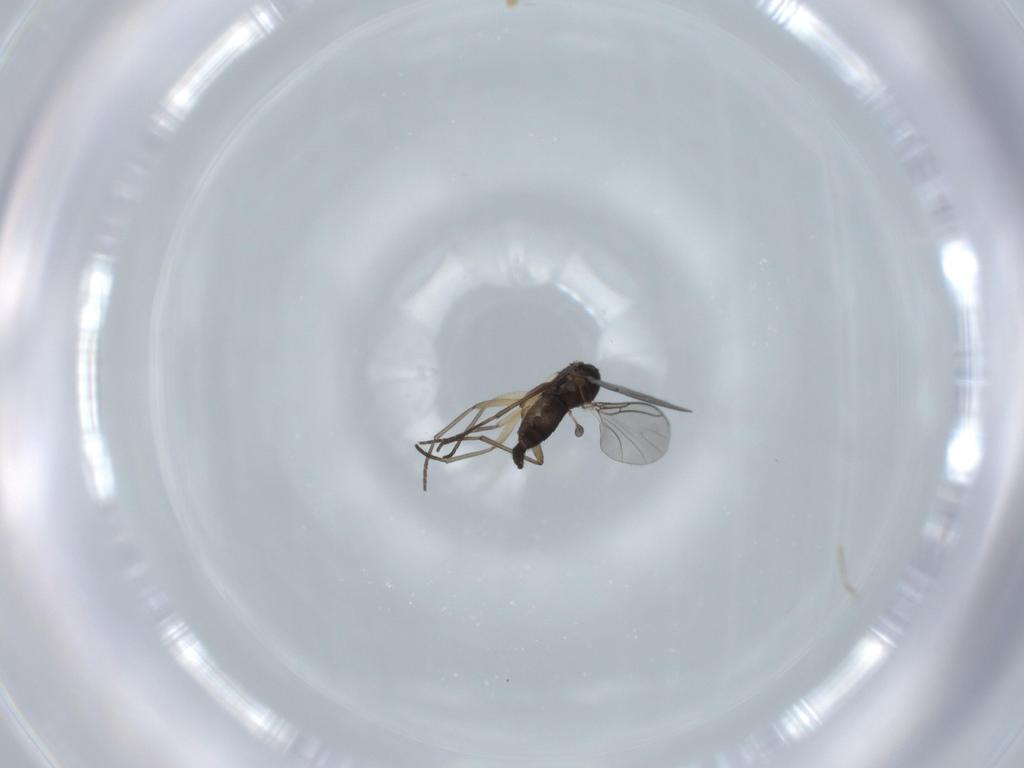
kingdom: Animalia
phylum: Arthropoda
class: Insecta
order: Diptera
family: Sciaridae
